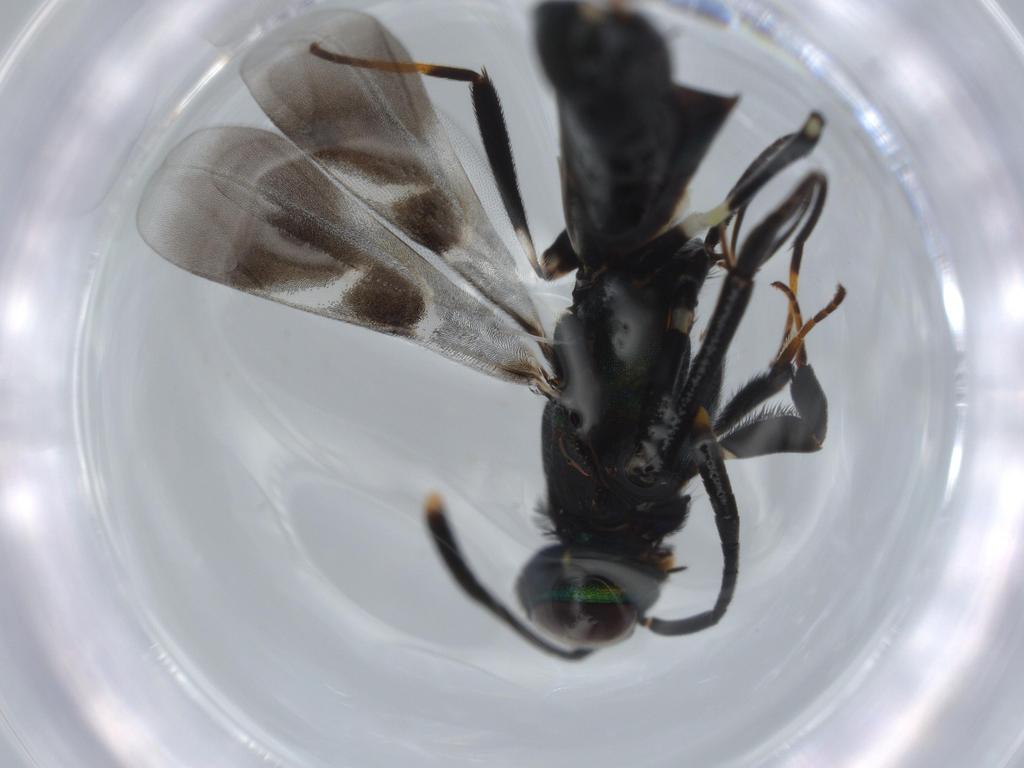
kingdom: Animalia
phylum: Arthropoda
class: Insecta
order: Hymenoptera
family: Eupelmidae
